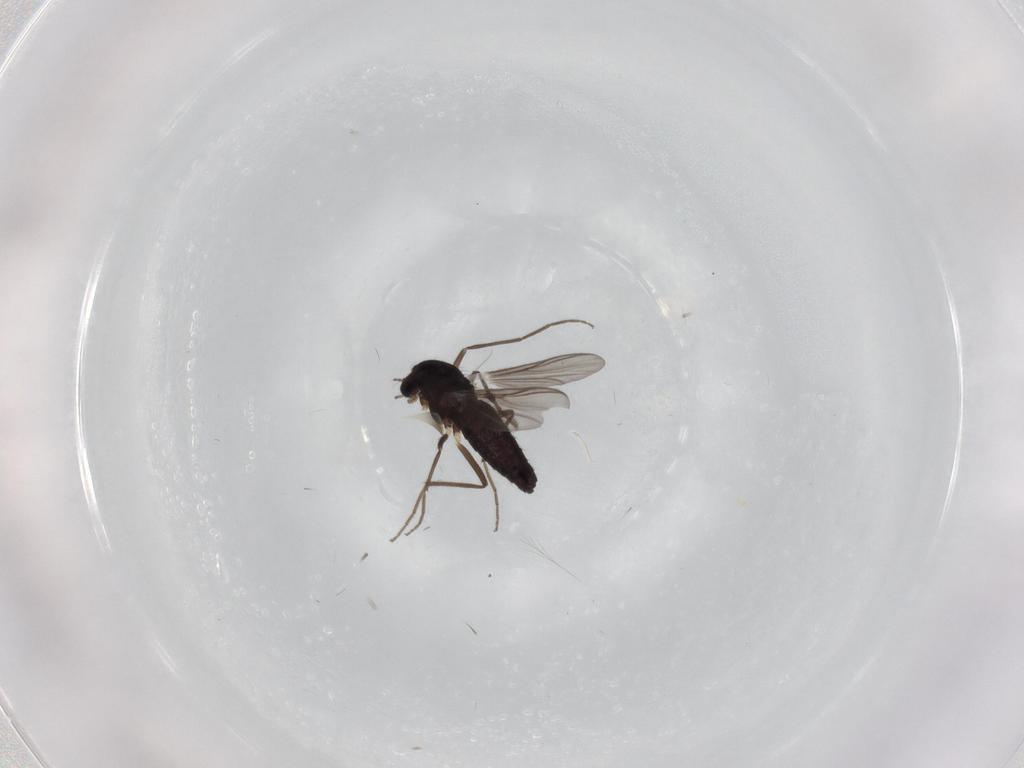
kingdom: Animalia
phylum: Arthropoda
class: Insecta
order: Diptera
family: Chironomidae
